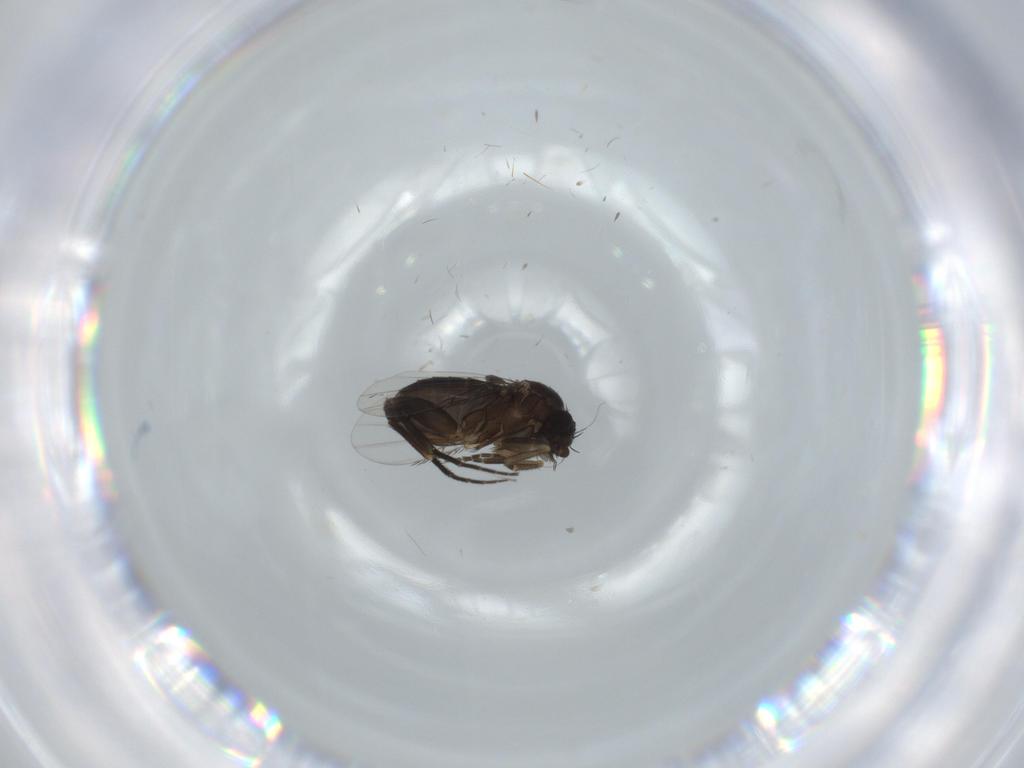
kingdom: Animalia
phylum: Arthropoda
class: Insecta
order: Diptera
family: Phoridae
